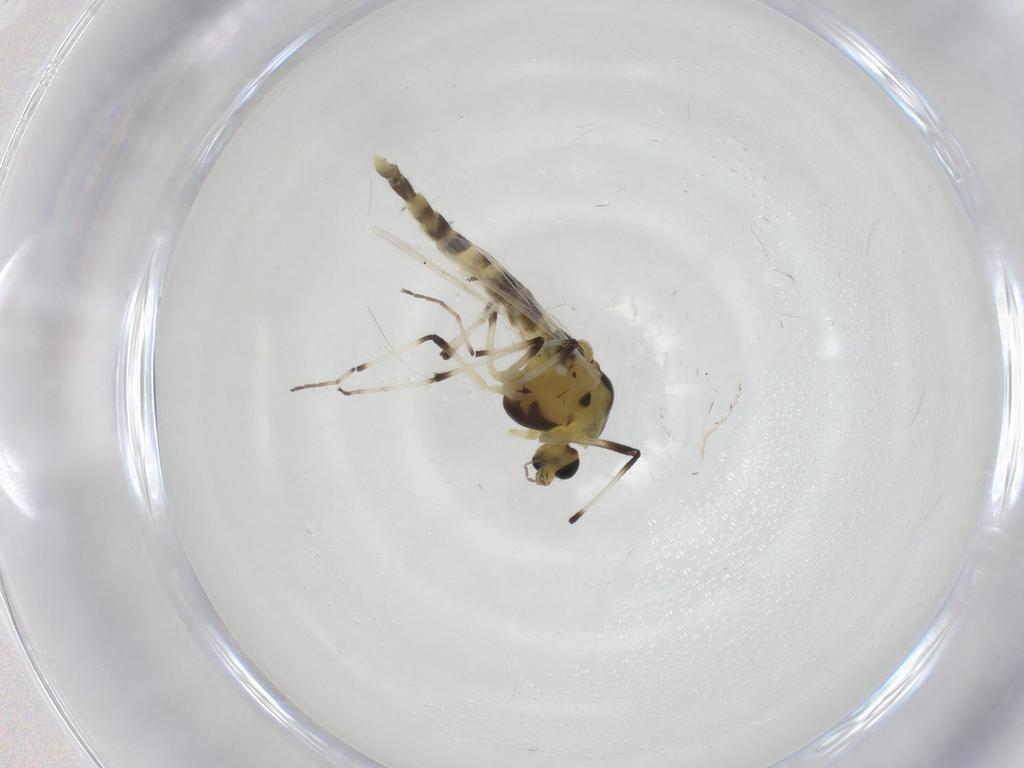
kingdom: Animalia
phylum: Arthropoda
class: Insecta
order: Diptera
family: Chironomidae
